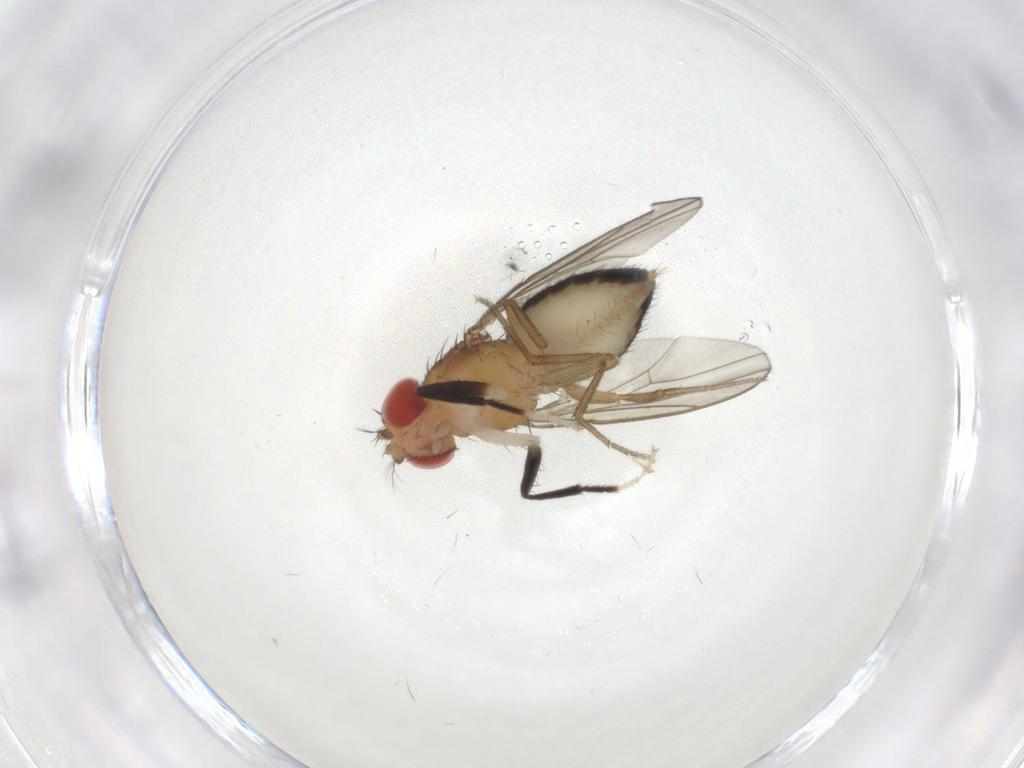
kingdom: Animalia
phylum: Arthropoda
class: Insecta
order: Diptera
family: Drosophilidae
